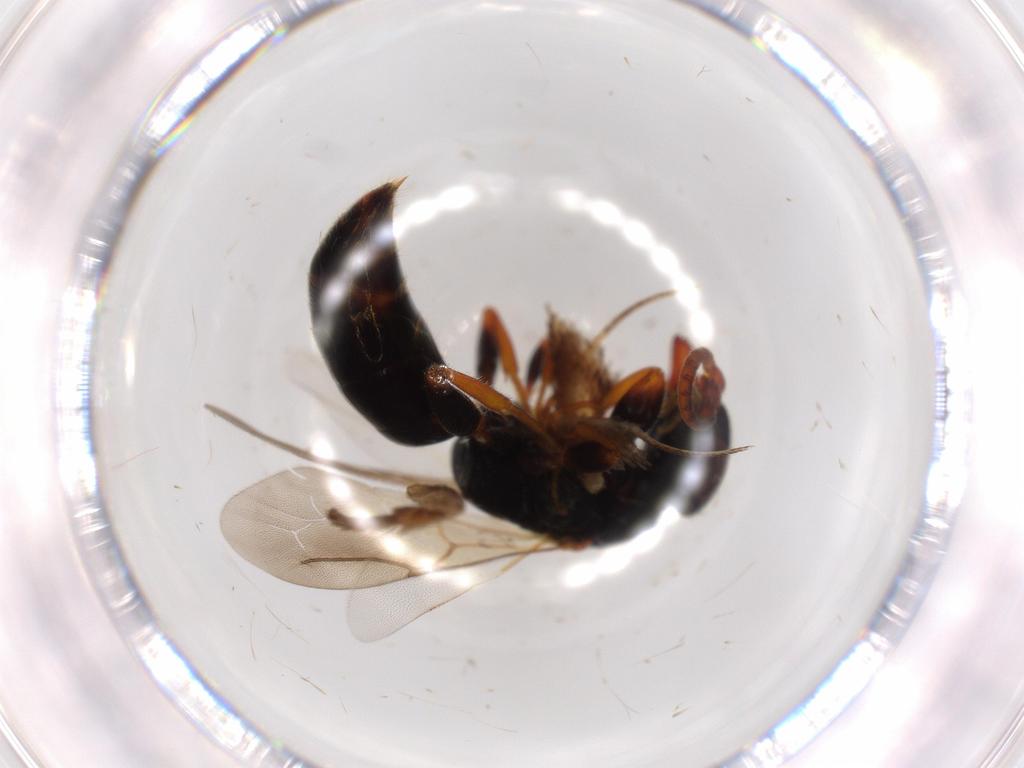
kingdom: Animalia
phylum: Arthropoda
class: Insecta
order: Hymenoptera
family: Bethylidae
